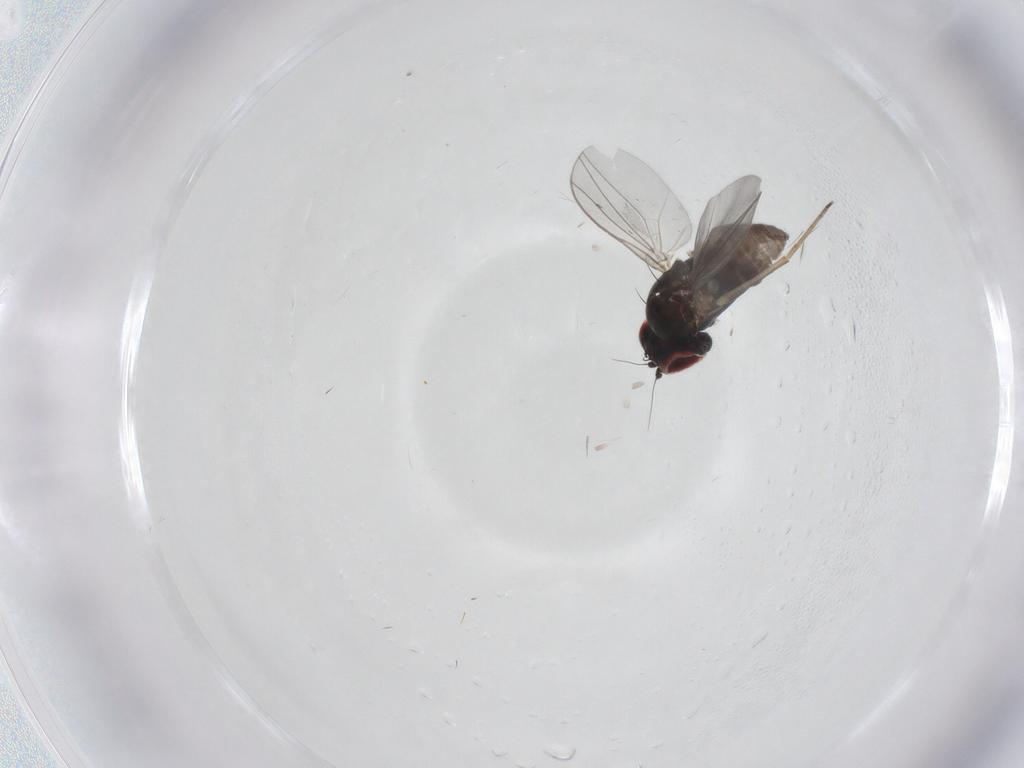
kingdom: Animalia
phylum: Arthropoda
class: Insecta
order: Diptera
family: Dolichopodidae
